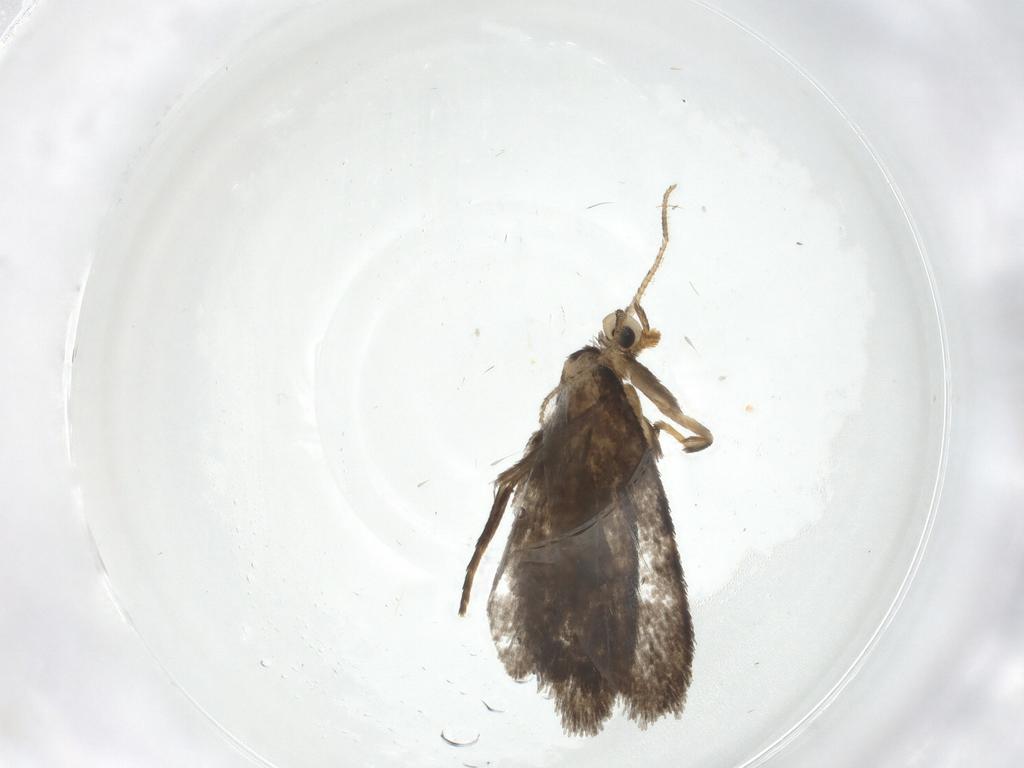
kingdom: Animalia
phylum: Arthropoda
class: Insecta
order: Lepidoptera
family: Psychidae
